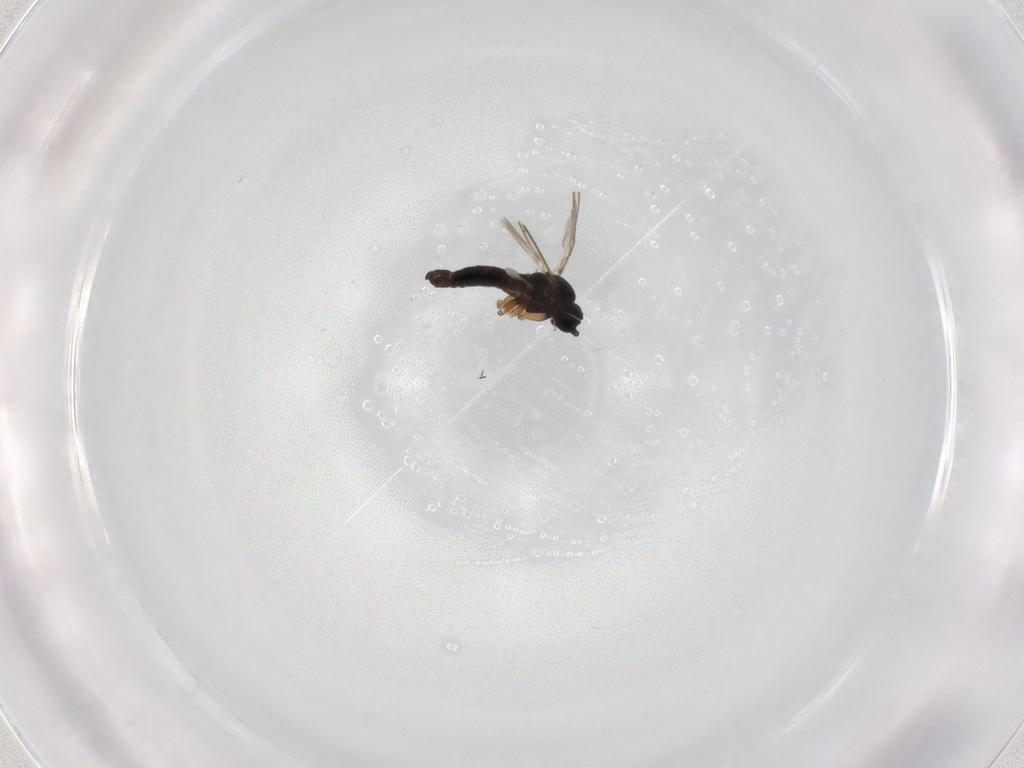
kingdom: Animalia
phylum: Arthropoda
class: Insecta
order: Diptera
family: Sciaridae
